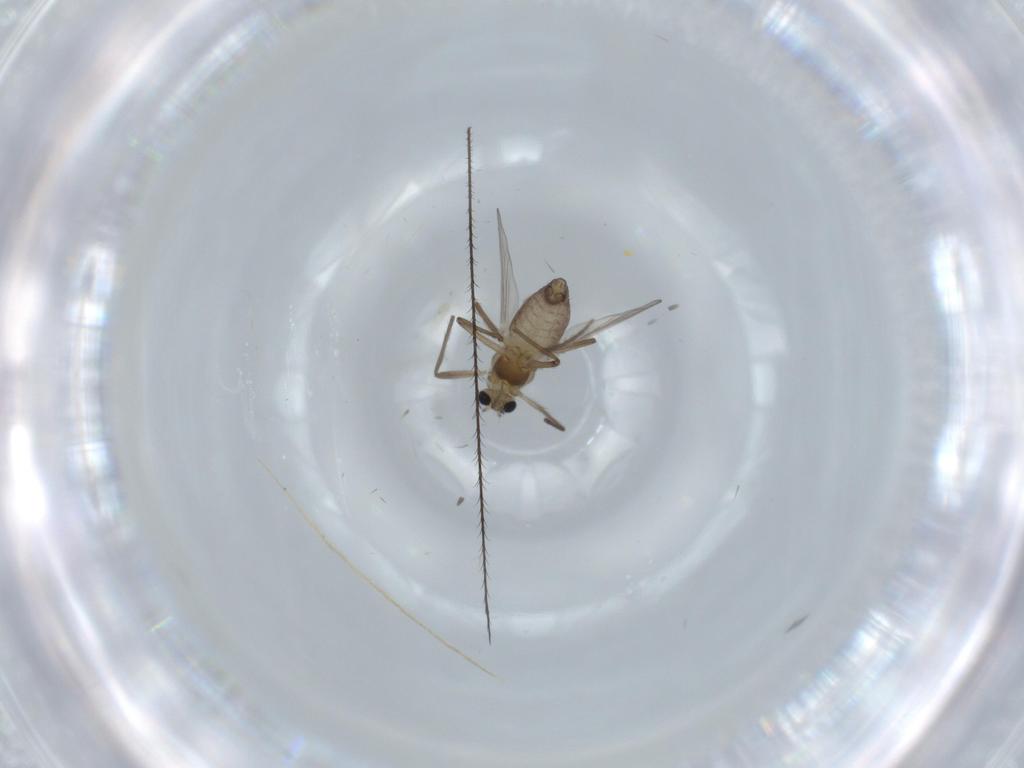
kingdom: Animalia
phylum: Arthropoda
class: Insecta
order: Diptera
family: Chironomidae
